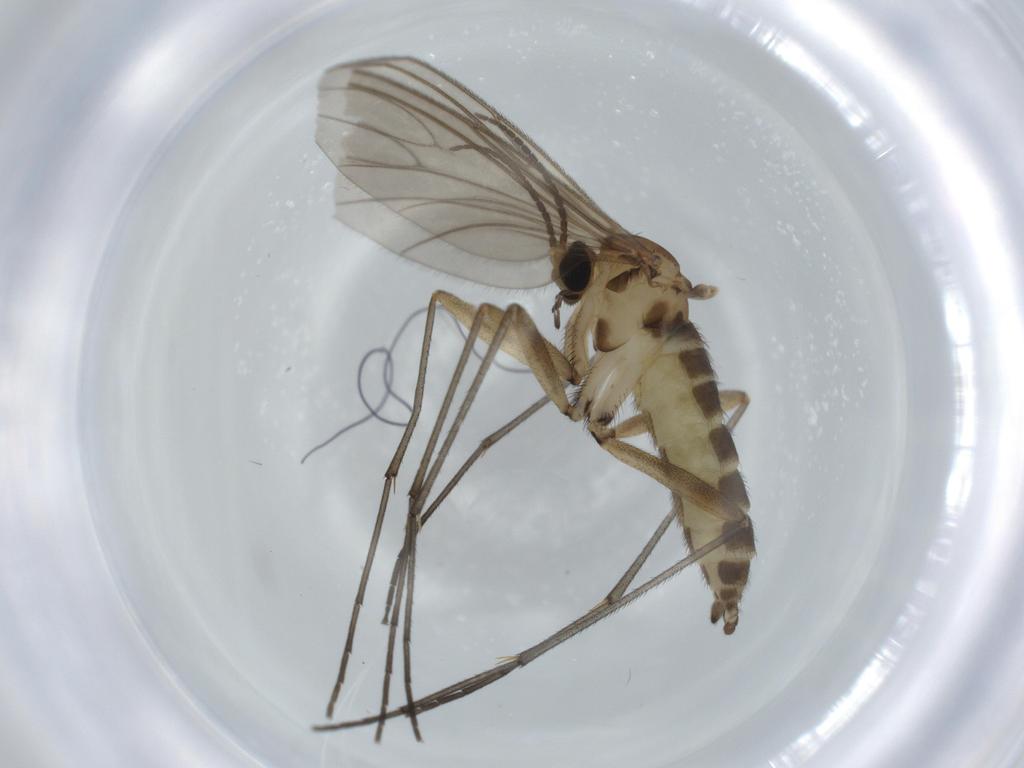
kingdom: Animalia
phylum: Arthropoda
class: Insecta
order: Diptera
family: Sciaridae
